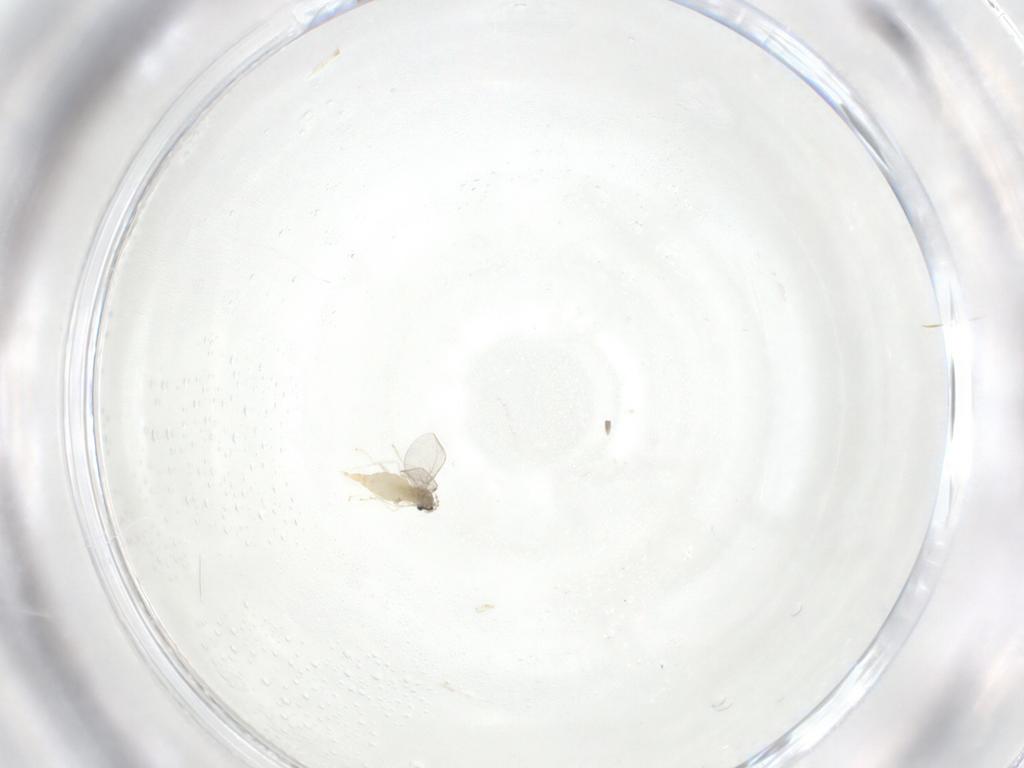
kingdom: Animalia
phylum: Arthropoda
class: Insecta
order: Diptera
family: Cecidomyiidae
